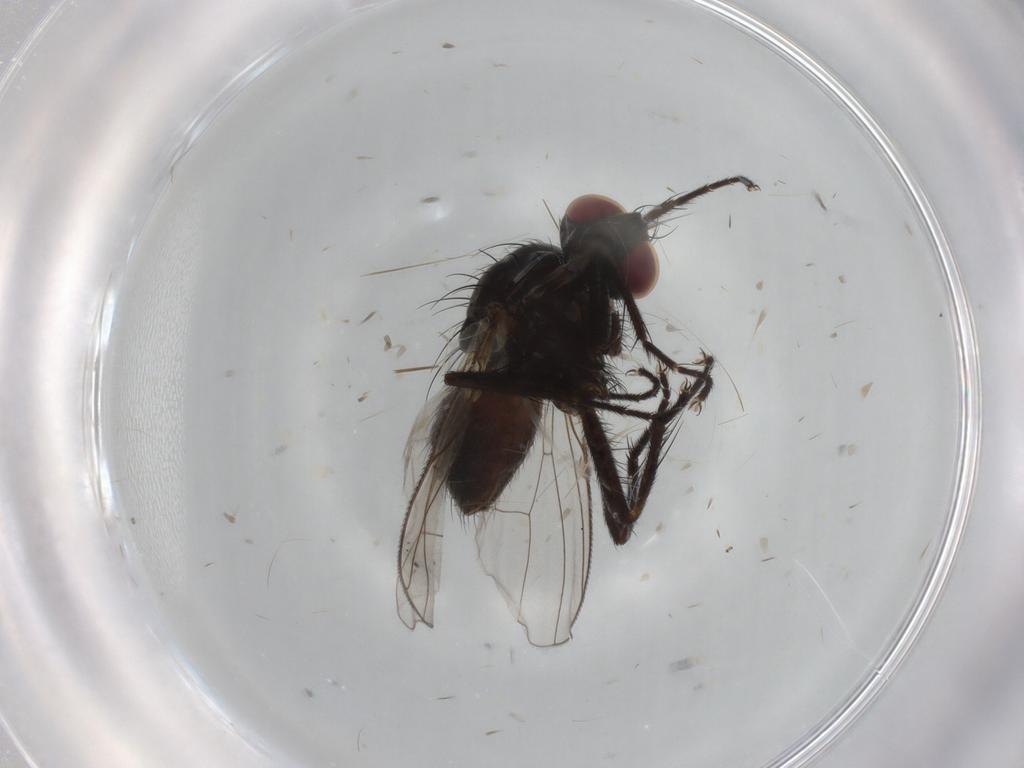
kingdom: Animalia
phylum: Arthropoda
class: Insecta
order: Diptera
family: Muscidae
